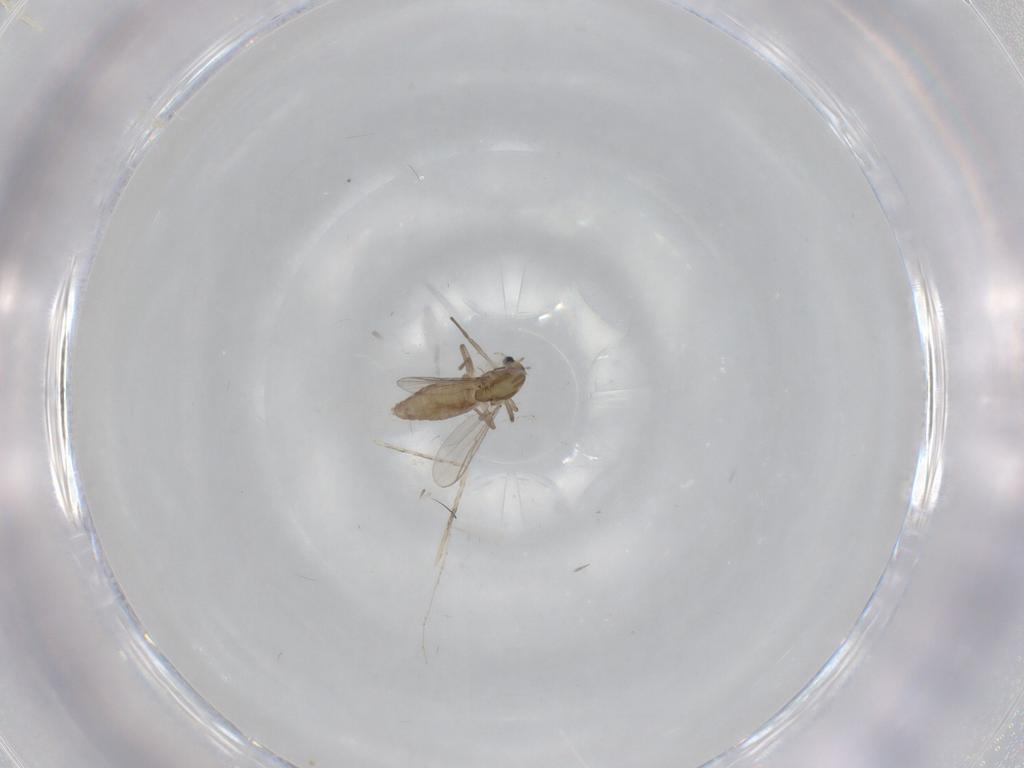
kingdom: Animalia
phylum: Arthropoda
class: Insecta
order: Diptera
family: Chironomidae
